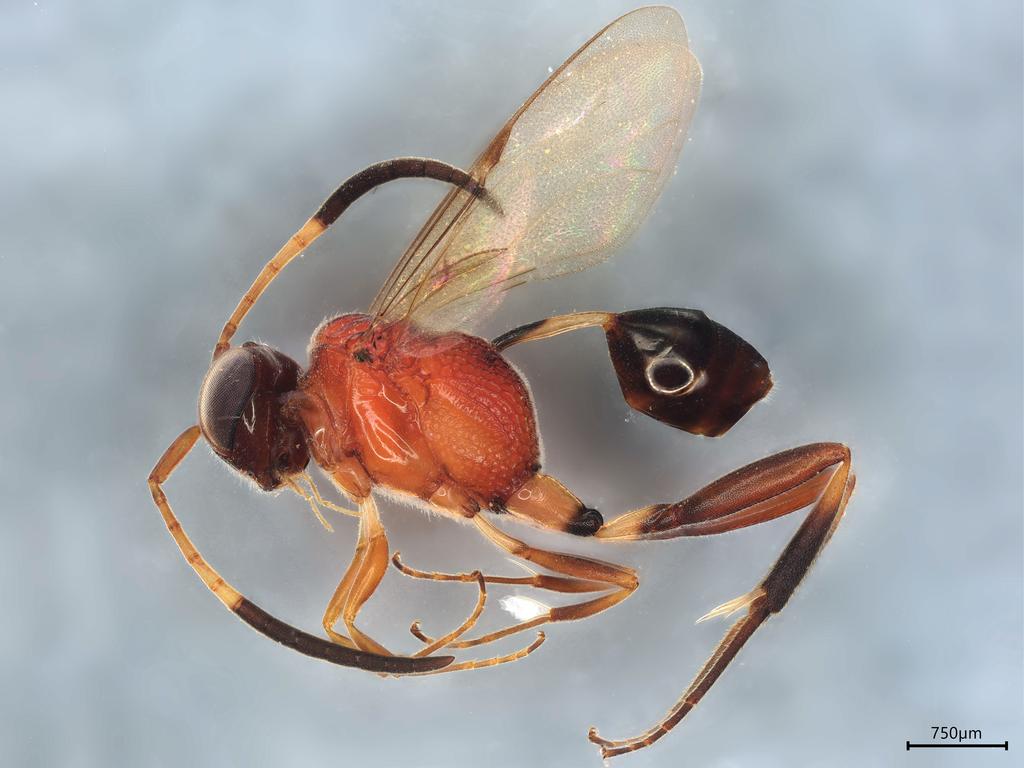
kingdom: Animalia
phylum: Arthropoda
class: Insecta
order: Hymenoptera
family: Evaniidae
